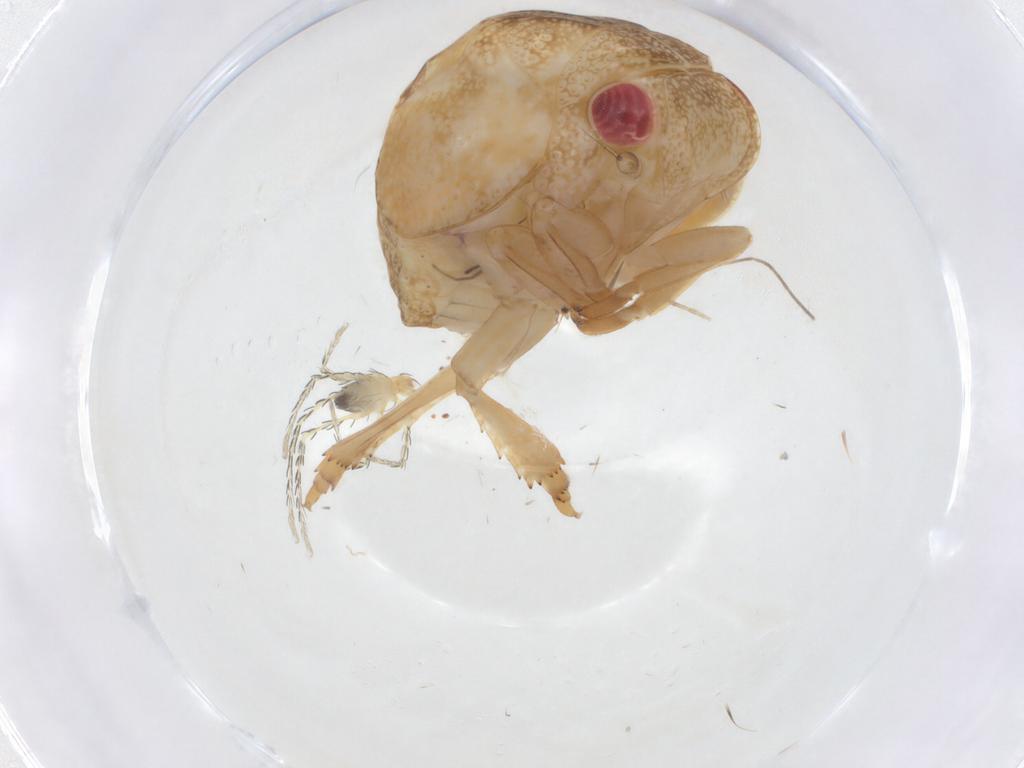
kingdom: Animalia
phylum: Arthropoda
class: Insecta
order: Hemiptera
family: Acanaloniidae
